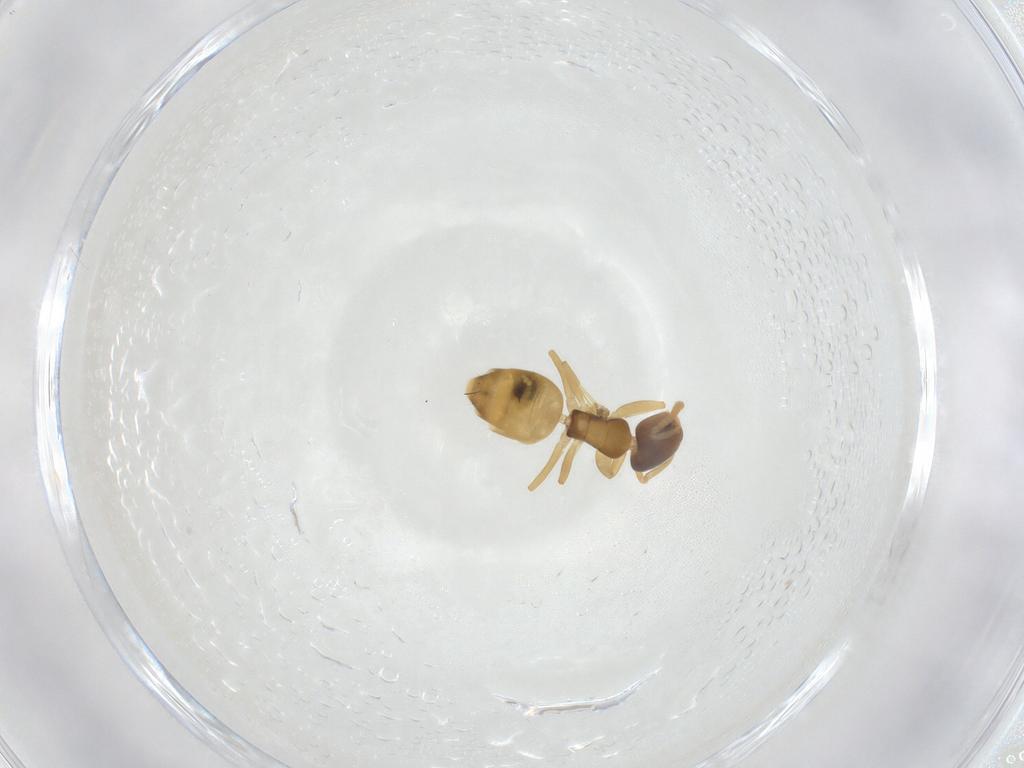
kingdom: Animalia
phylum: Arthropoda
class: Insecta
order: Hymenoptera
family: Formicidae
